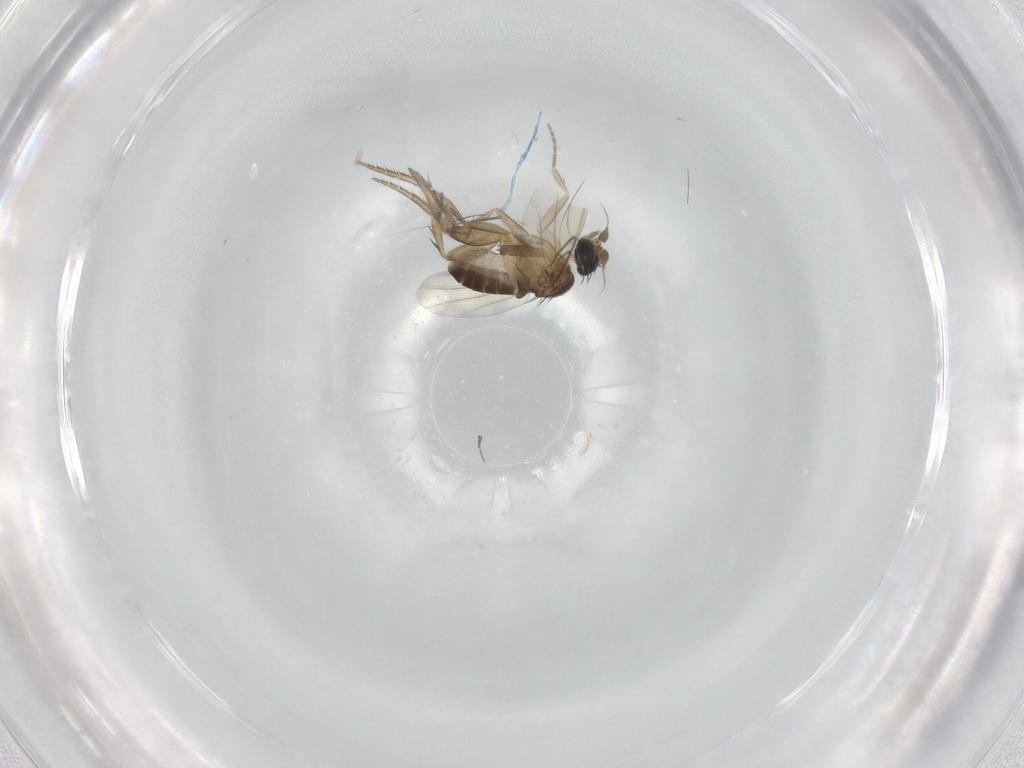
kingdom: Animalia
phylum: Arthropoda
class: Insecta
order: Diptera
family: Phoridae
